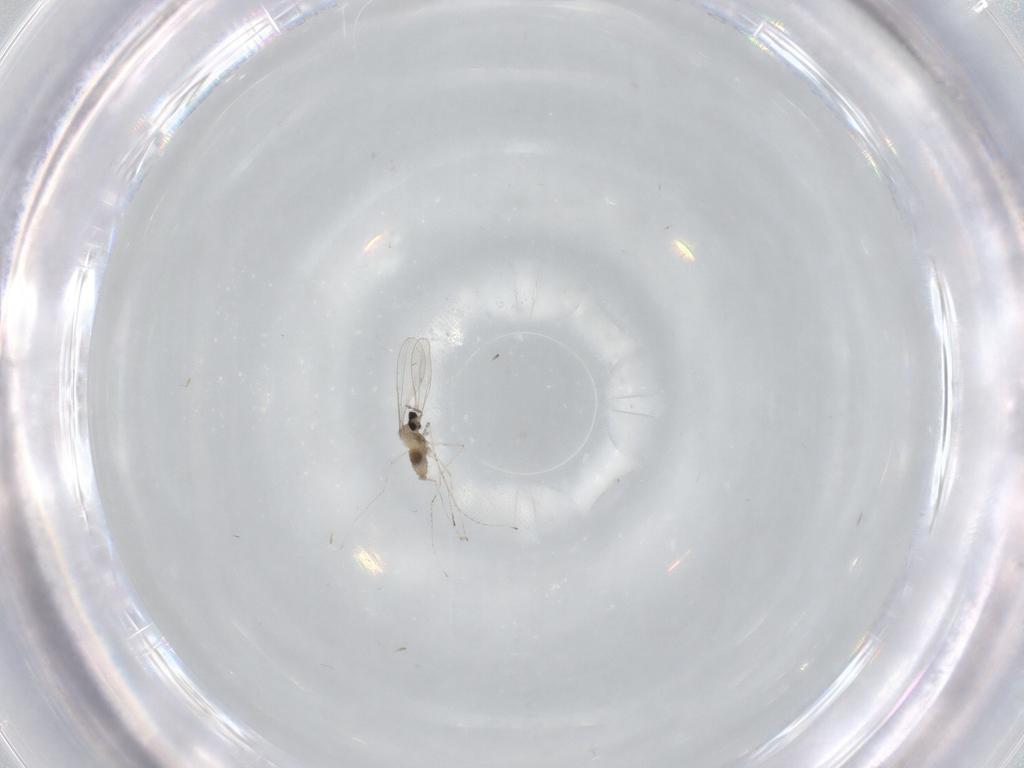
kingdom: Animalia
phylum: Arthropoda
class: Insecta
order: Diptera
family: Cecidomyiidae
